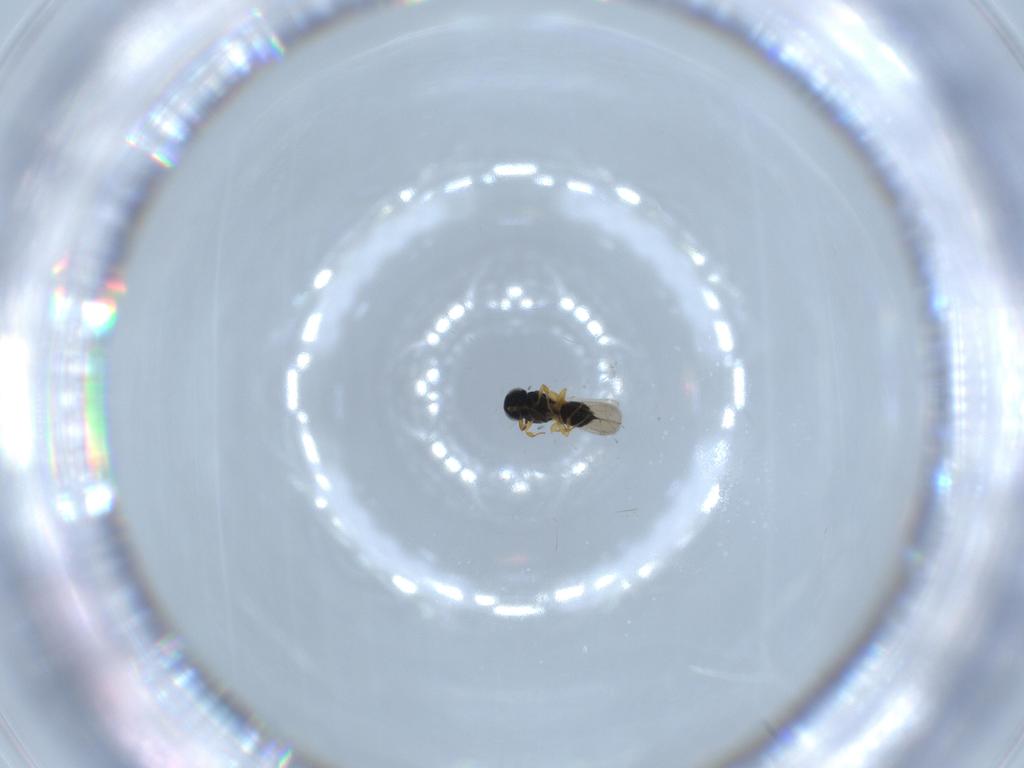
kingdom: Animalia
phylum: Arthropoda
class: Insecta
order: Hymenoptera
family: Scelionidae
